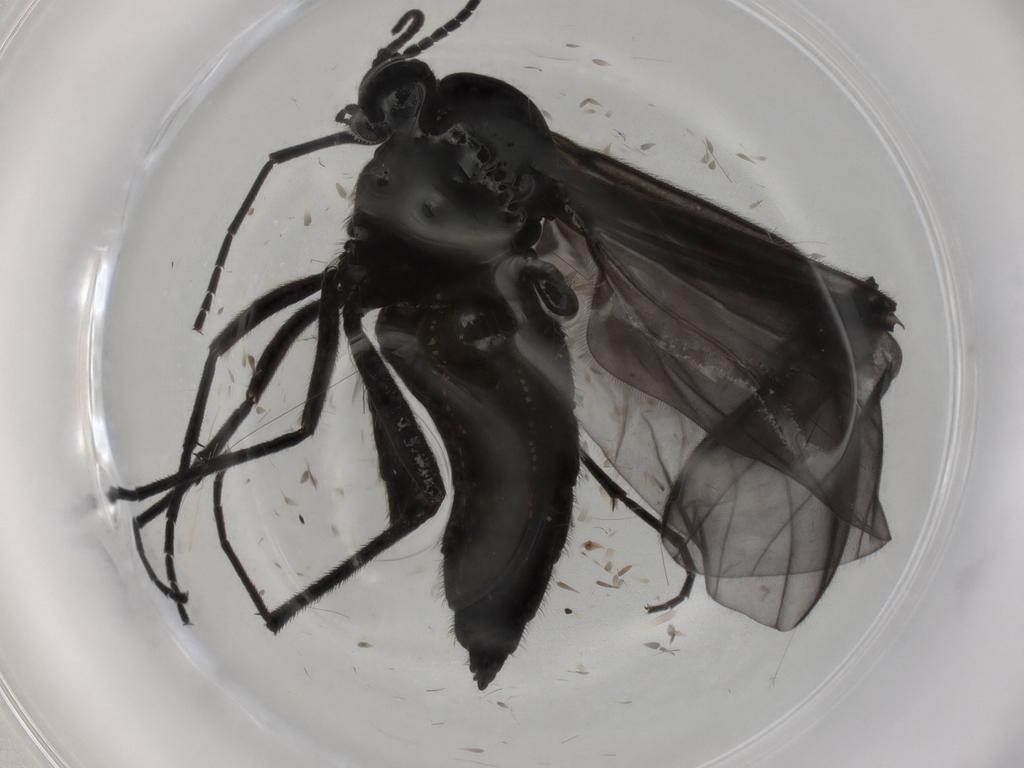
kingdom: Animalia
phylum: Arthropoda
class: Insecta
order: Diptera
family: Sciaridae
